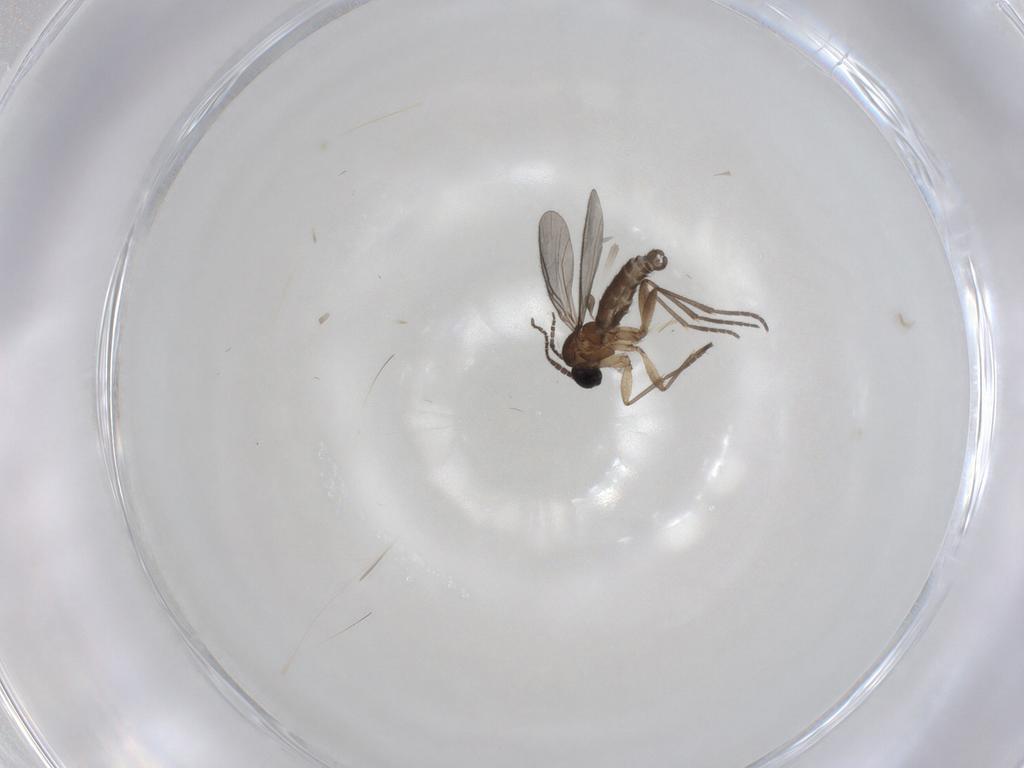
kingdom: Animalia
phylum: Arthropoda
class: Insecta
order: Diptera
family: Sciaridae
